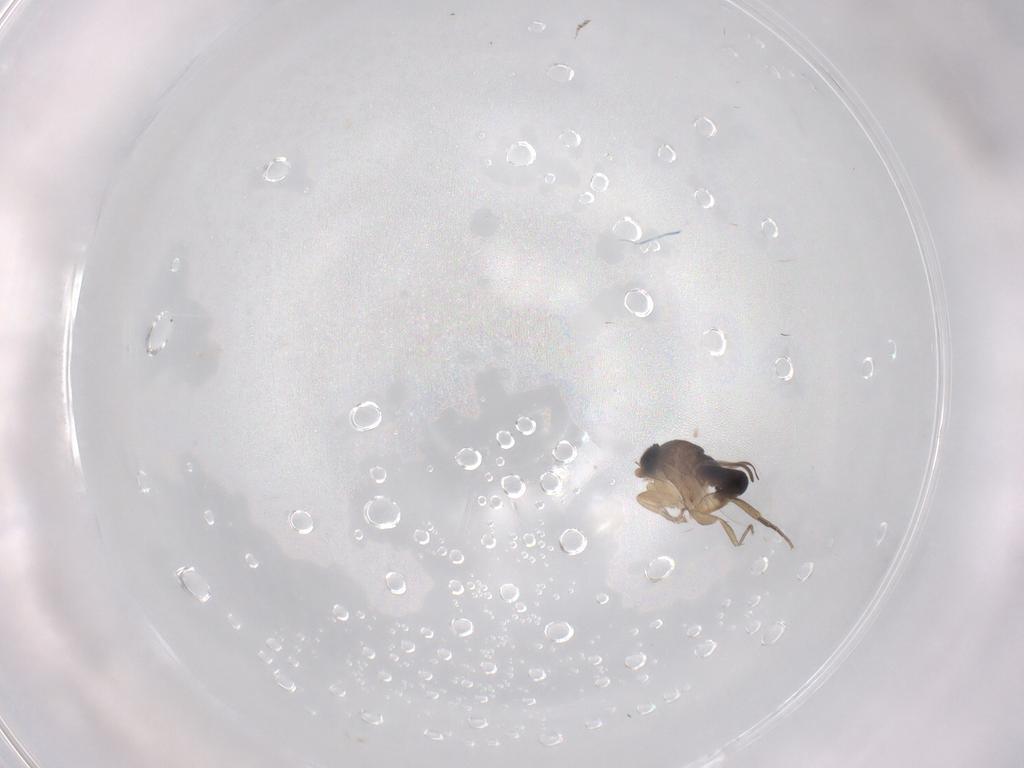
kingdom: Animalia
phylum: Arthropoda
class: Insecta
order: Diptera
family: Phoridae
